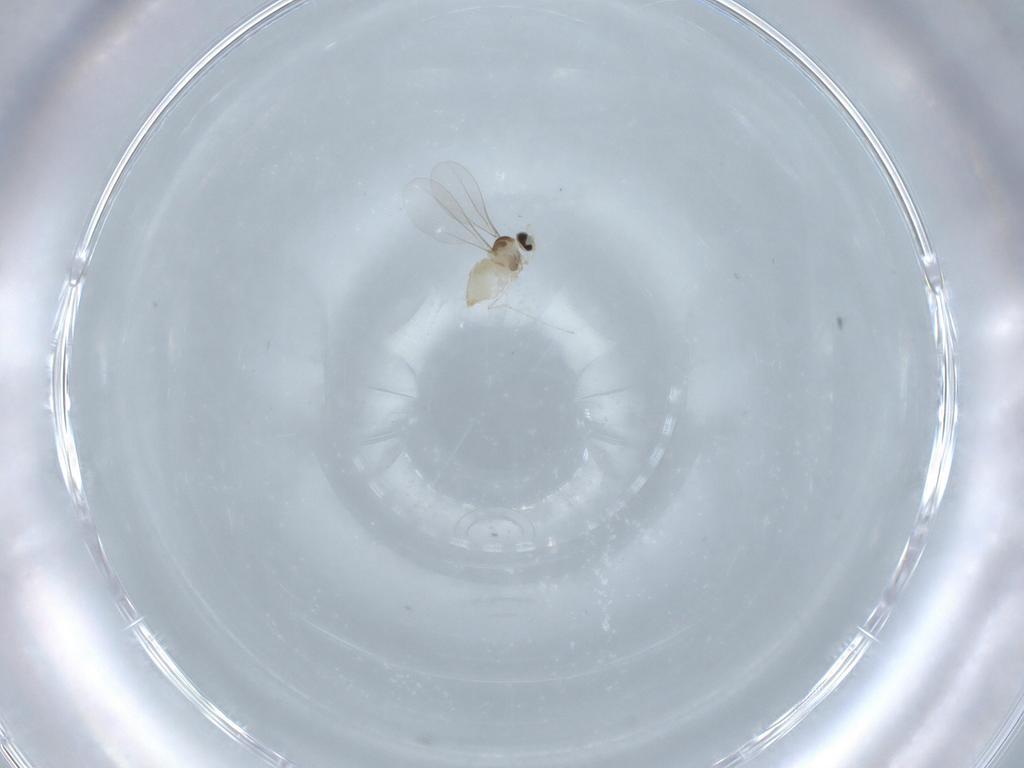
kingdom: Animalia
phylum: Arthropoda
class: Insecta
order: Diptera
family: Cecidomyiidae
